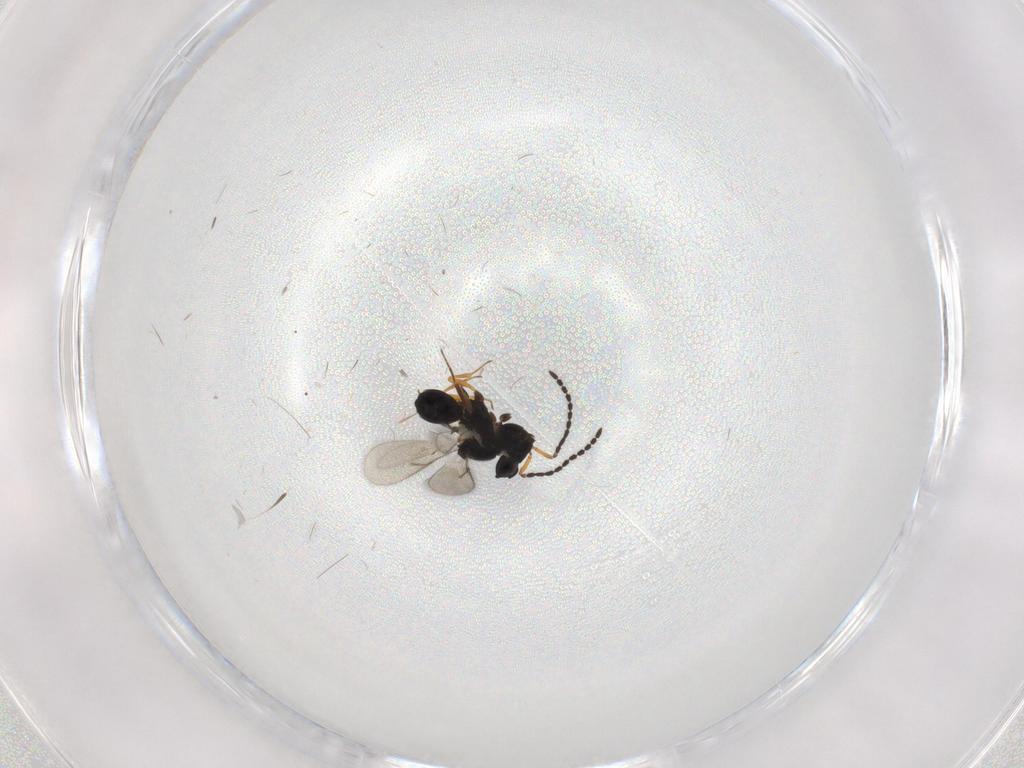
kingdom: Animalia
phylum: Arthropoda
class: Insecta
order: Hymenoptera
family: Scelionidae
